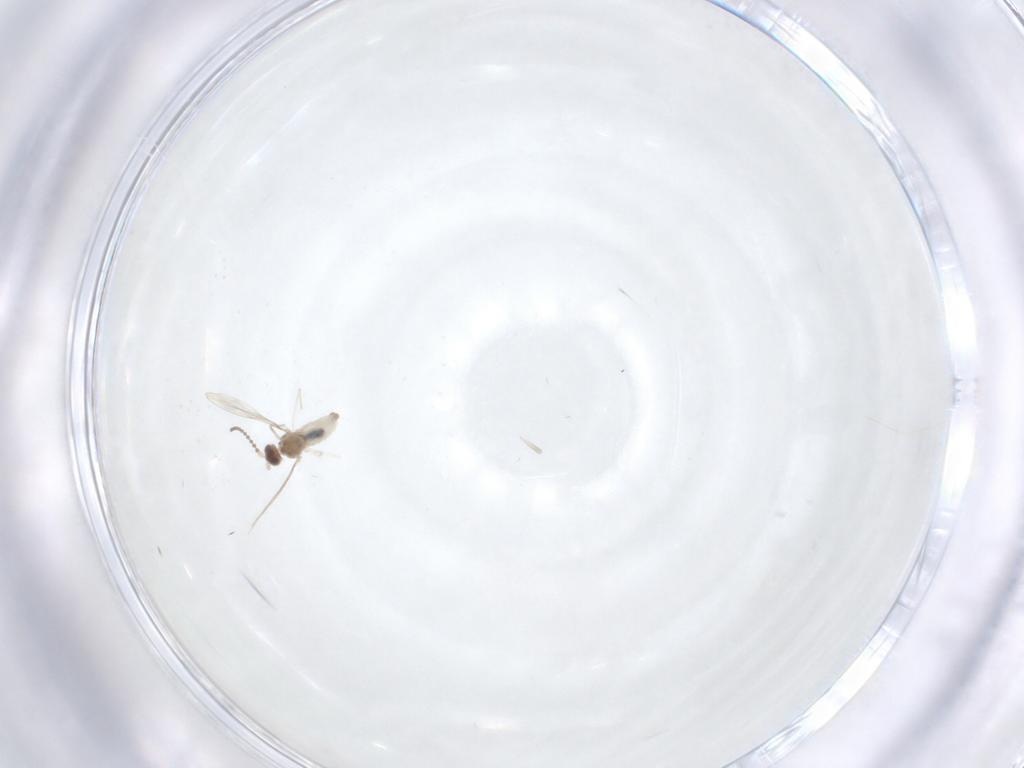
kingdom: Animalia
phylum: Arthropoda
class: Insecta
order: Diptera
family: Cecidomyiidae
